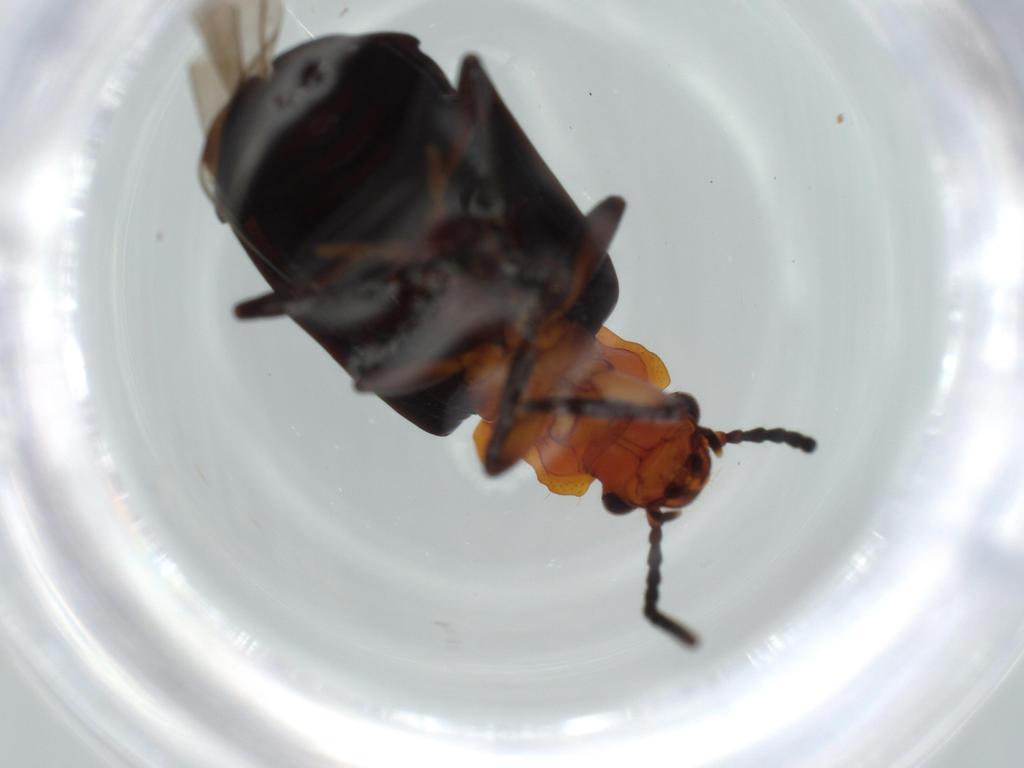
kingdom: Animalia
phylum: Arthropoda
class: Insecta
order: Coleoptera
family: Carabidae
